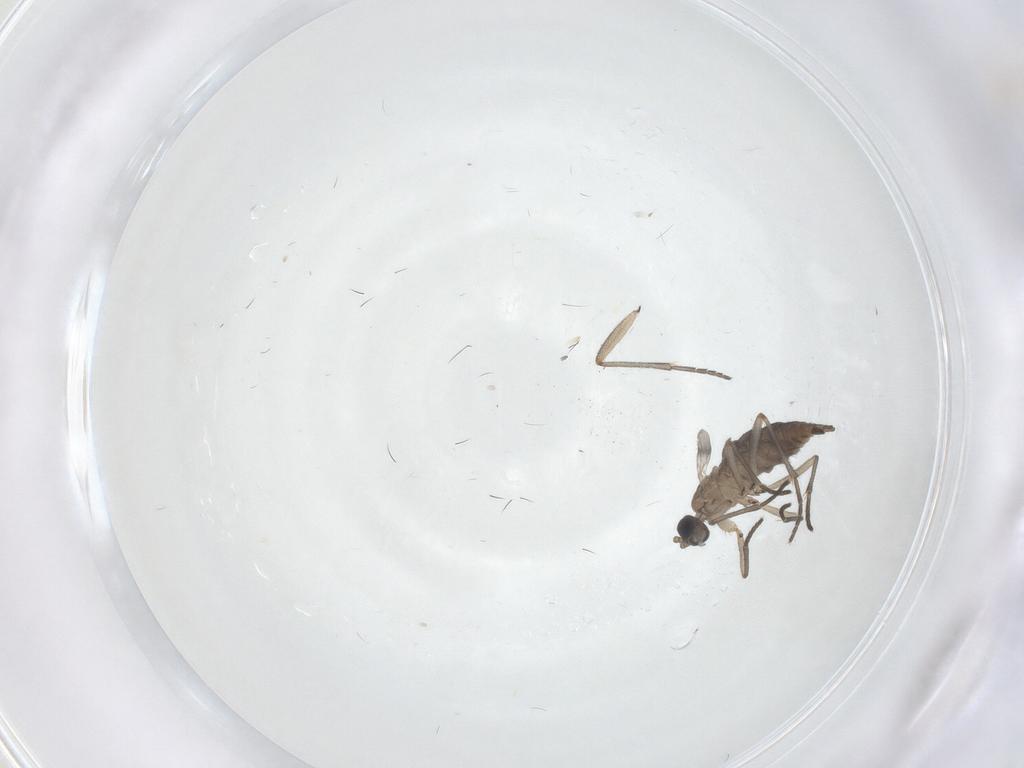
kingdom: Animalia
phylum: Arthropoda
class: Insecta
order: Diptera
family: Sciaridae
